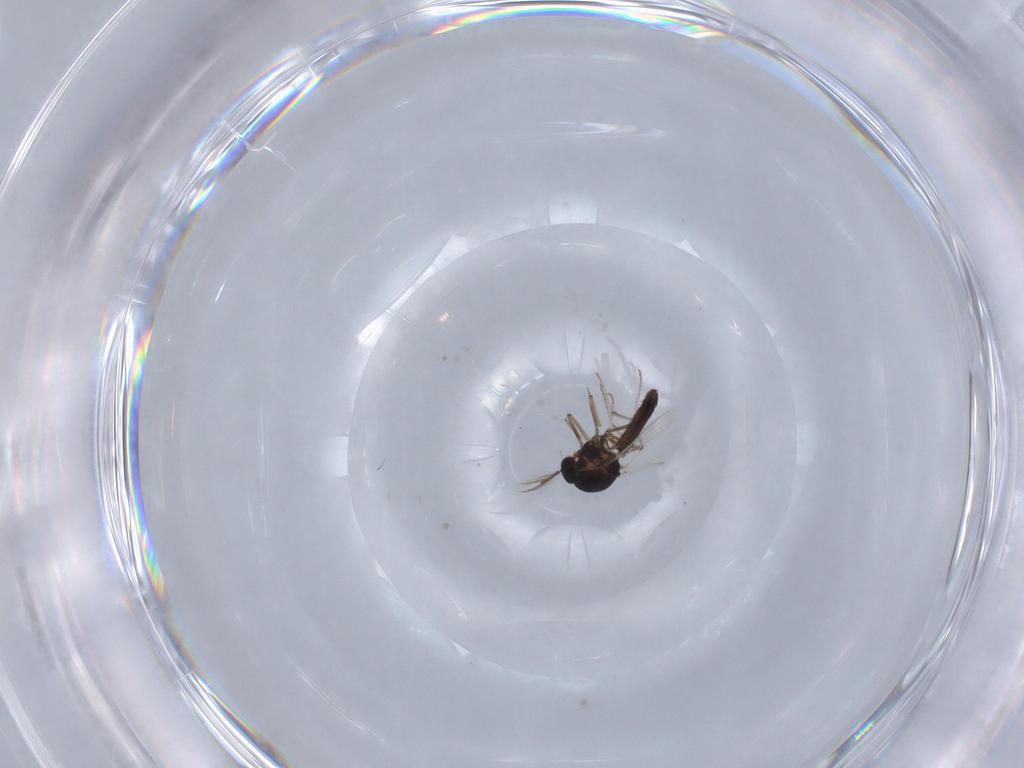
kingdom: Animalia
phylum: Arthropoda
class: Insecta
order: Diptera
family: Ceratopogonidae
